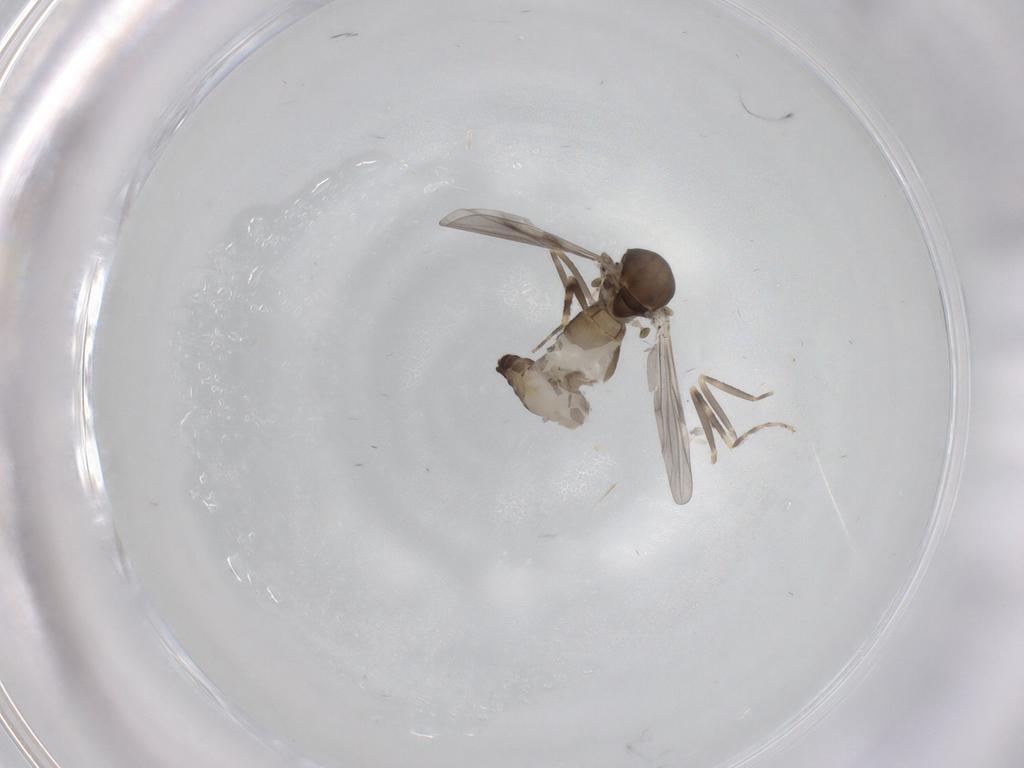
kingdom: Animalia
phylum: Arthropoda
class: Insecta
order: Diptera
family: Ceratopogonidae
